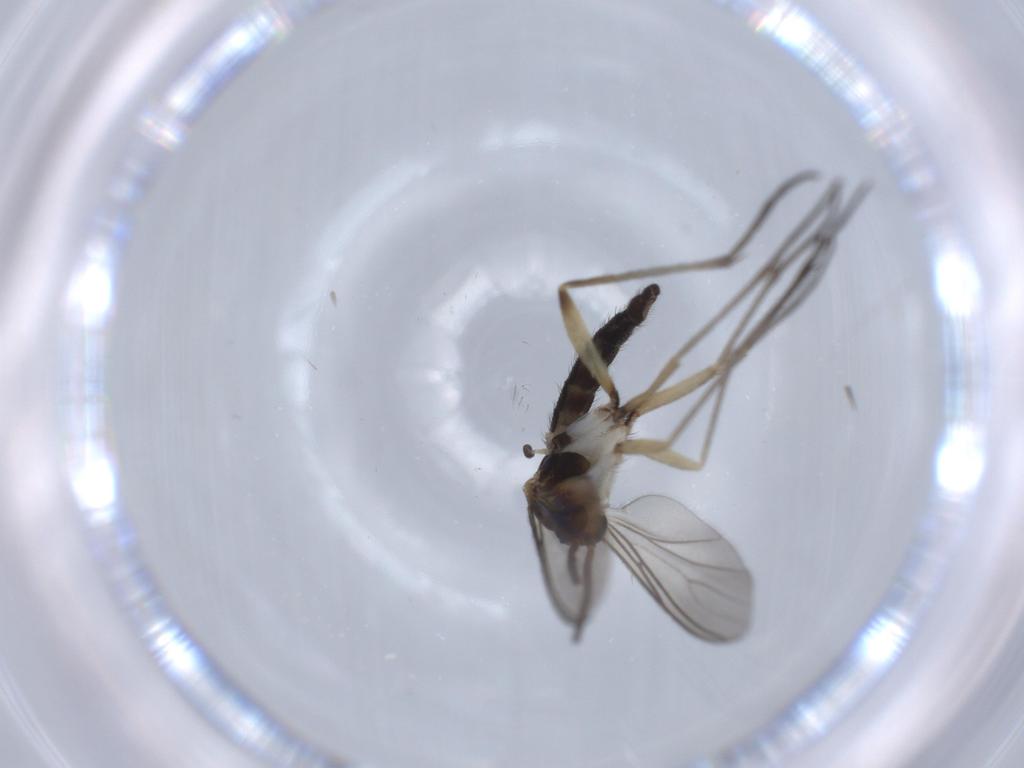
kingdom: Animalia
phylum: Arthropoda
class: Insecta
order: Diptera
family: Sciaridae
